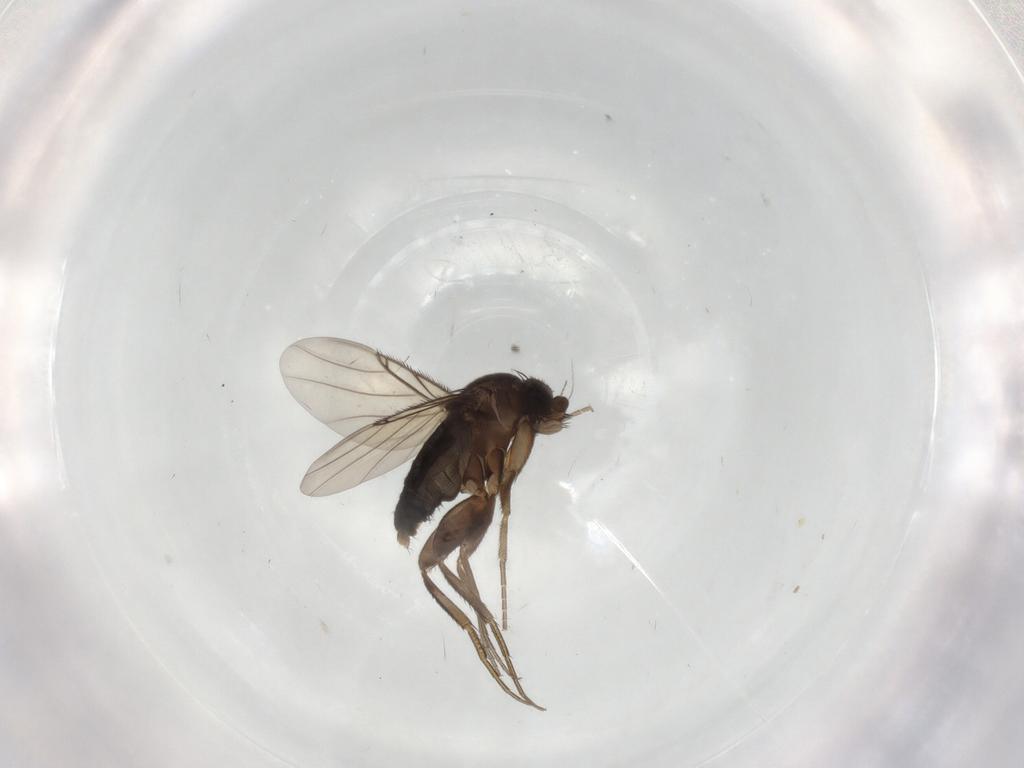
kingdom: Animalia
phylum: Arthropoda
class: Insecta
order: Diptera
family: Phoridae
